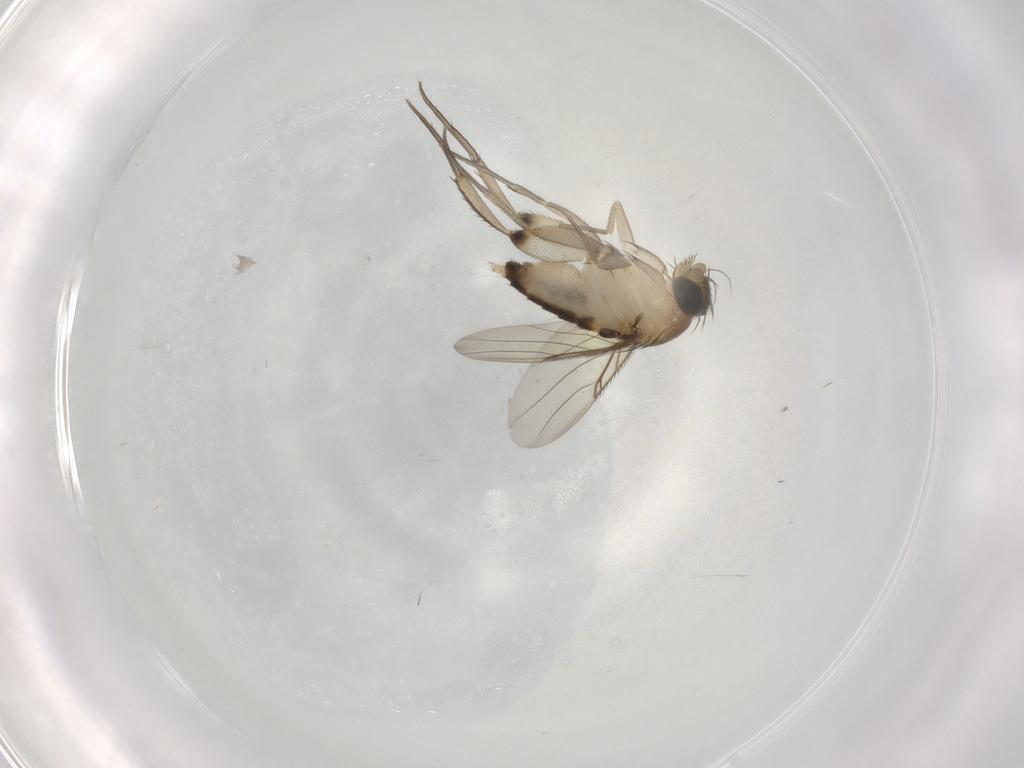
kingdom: Animalia
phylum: Arthropoda
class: Insecta
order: Diptera
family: Phoridae
